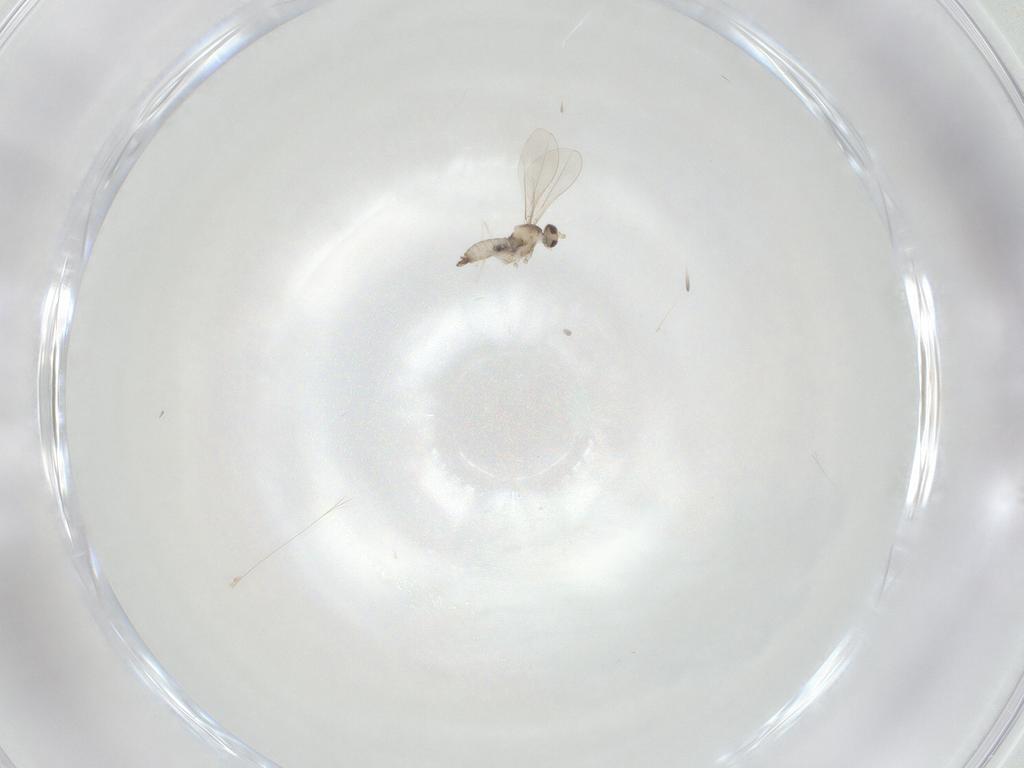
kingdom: Animalia
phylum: Arthropoda
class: Insecta
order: Diptera
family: Cecidomyiidae
